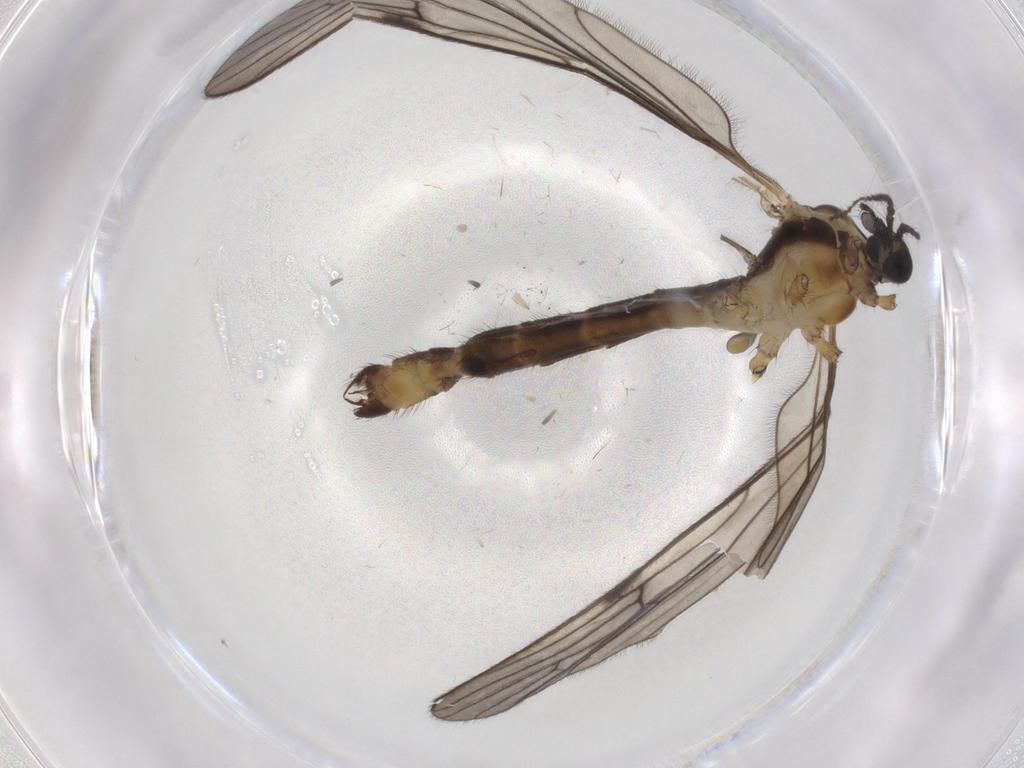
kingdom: Animalia
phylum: Arthropoda
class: Insecta
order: Diptera
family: Limoniidae
